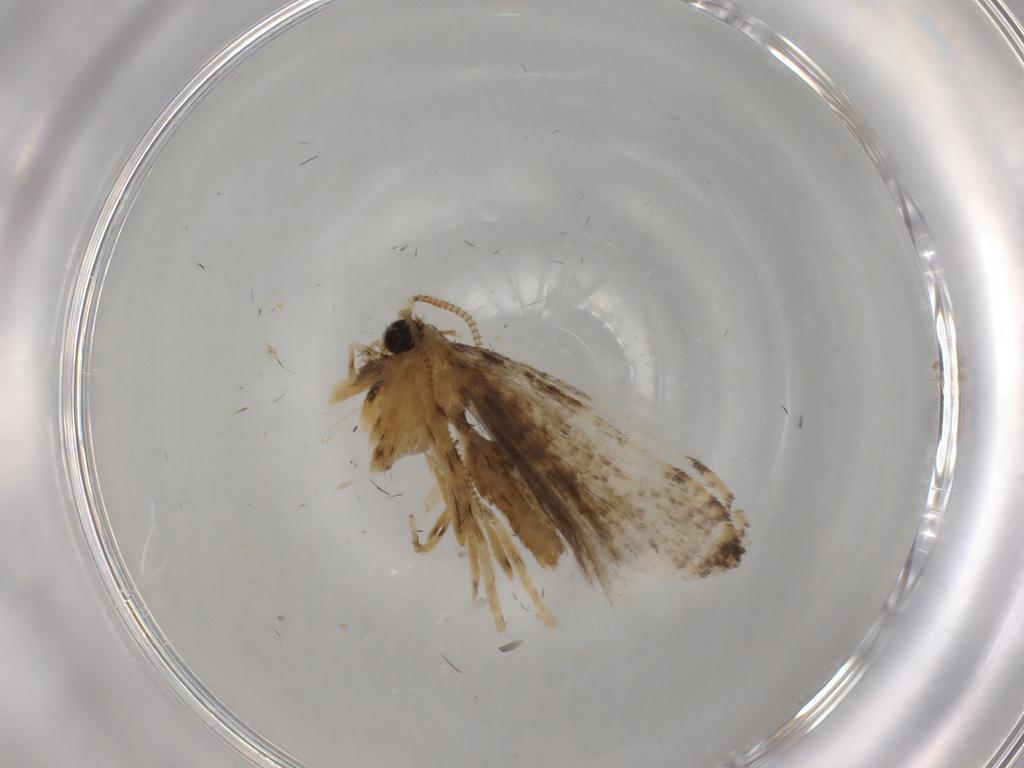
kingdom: Animalia
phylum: Arthropoda
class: Insecta
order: Lepidoptera
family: Tineidae
